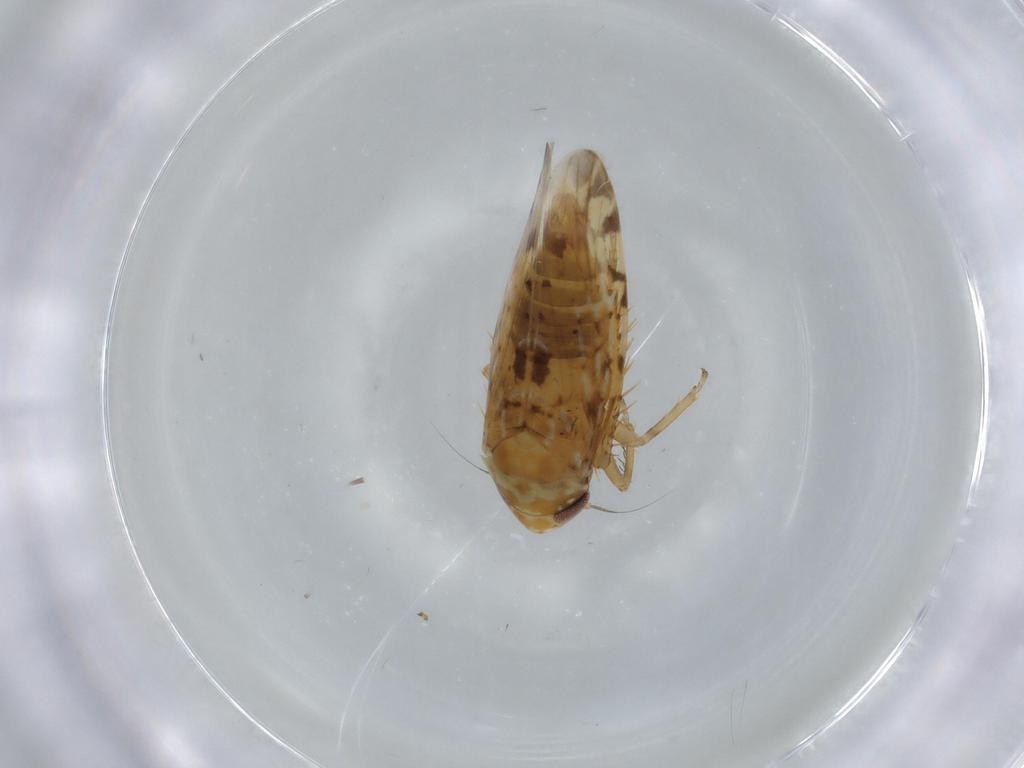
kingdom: Animalia
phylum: Arthropoda
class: Insecta
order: Hemiptera
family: Cicadellidae
